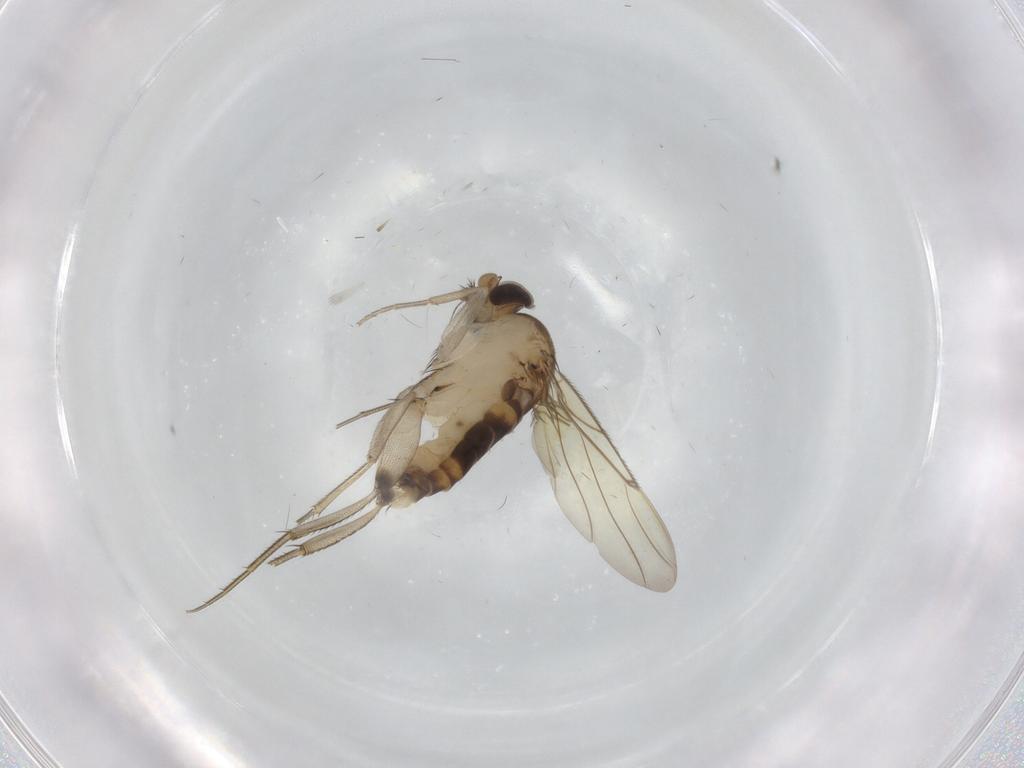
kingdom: Animalia
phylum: Arthropoda
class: Insecta
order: Diptera
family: Phoridae
